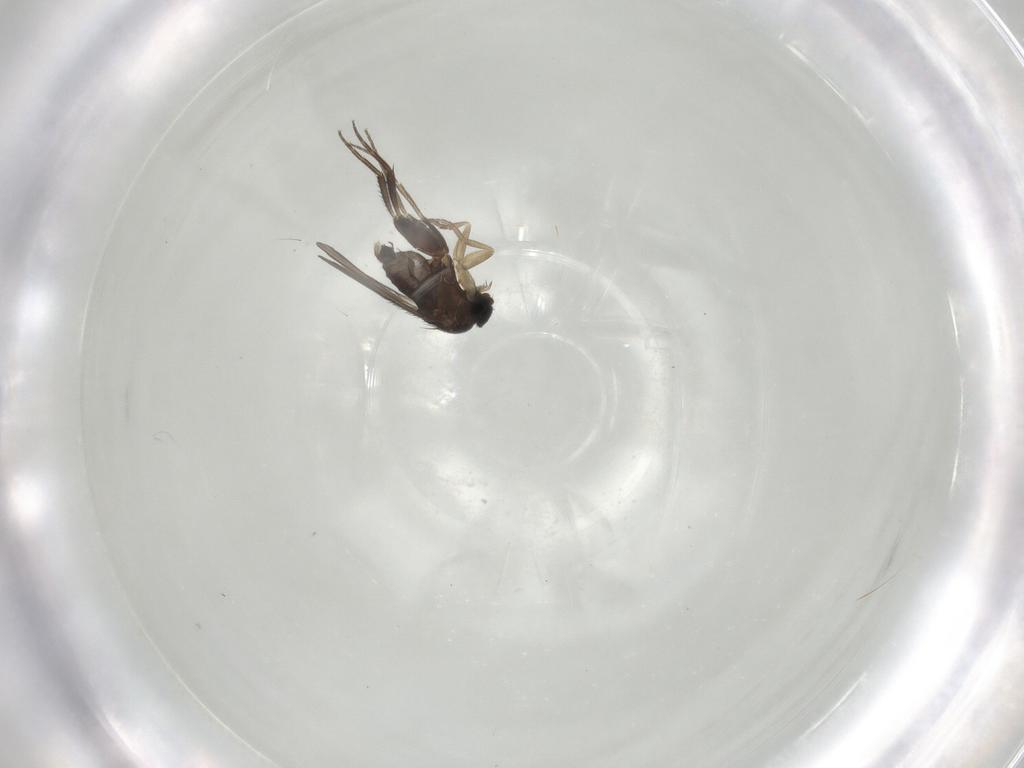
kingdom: Animalia
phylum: Arthropoda
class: Insecta
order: Diptera
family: Phoridae
